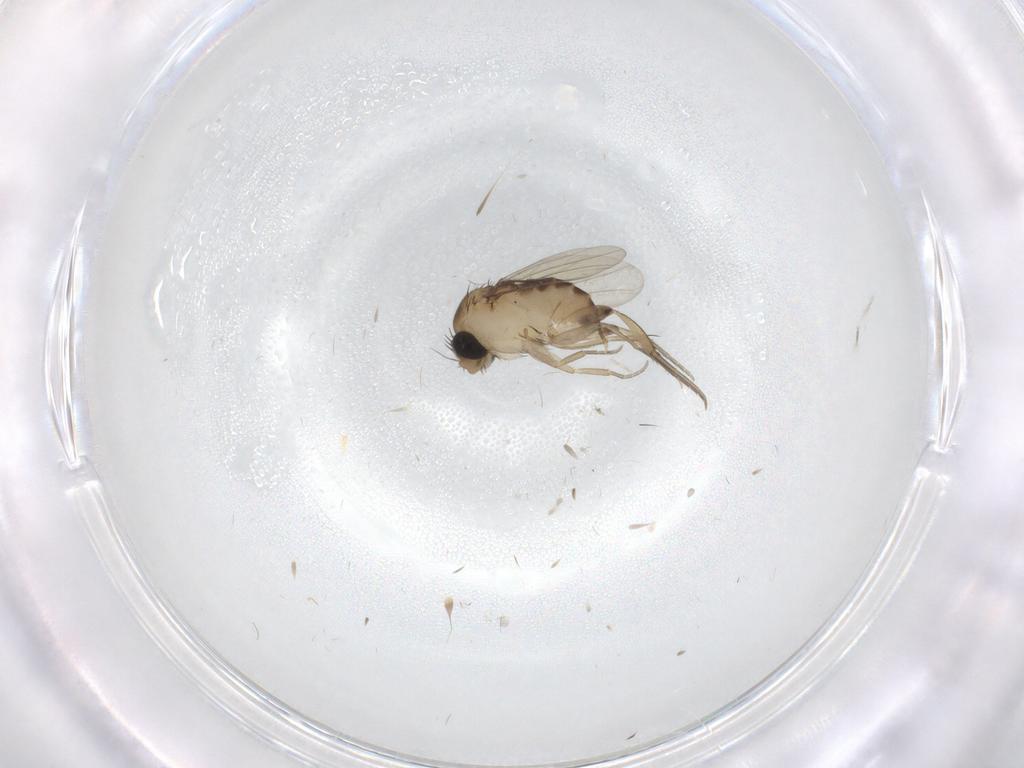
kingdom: Animalia
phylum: Arthropoda
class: Insecta
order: Diptera
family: Phoridae
